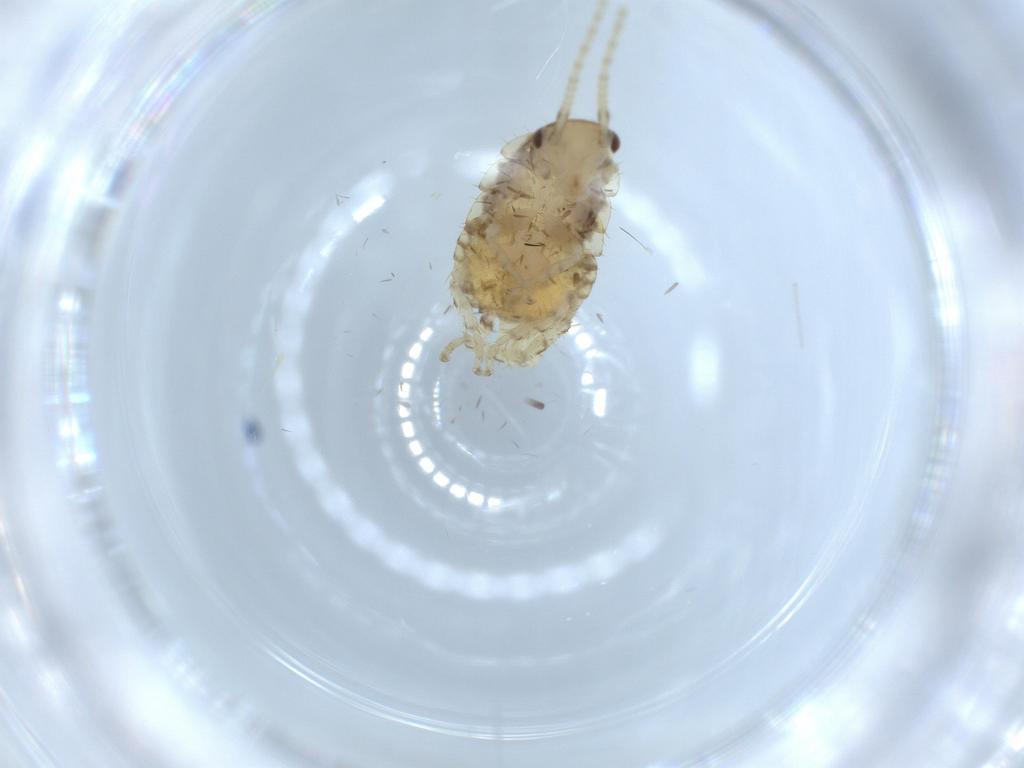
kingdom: Animalia
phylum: Arthropoda
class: Insecta
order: Blattodea
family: Ectobiidae
